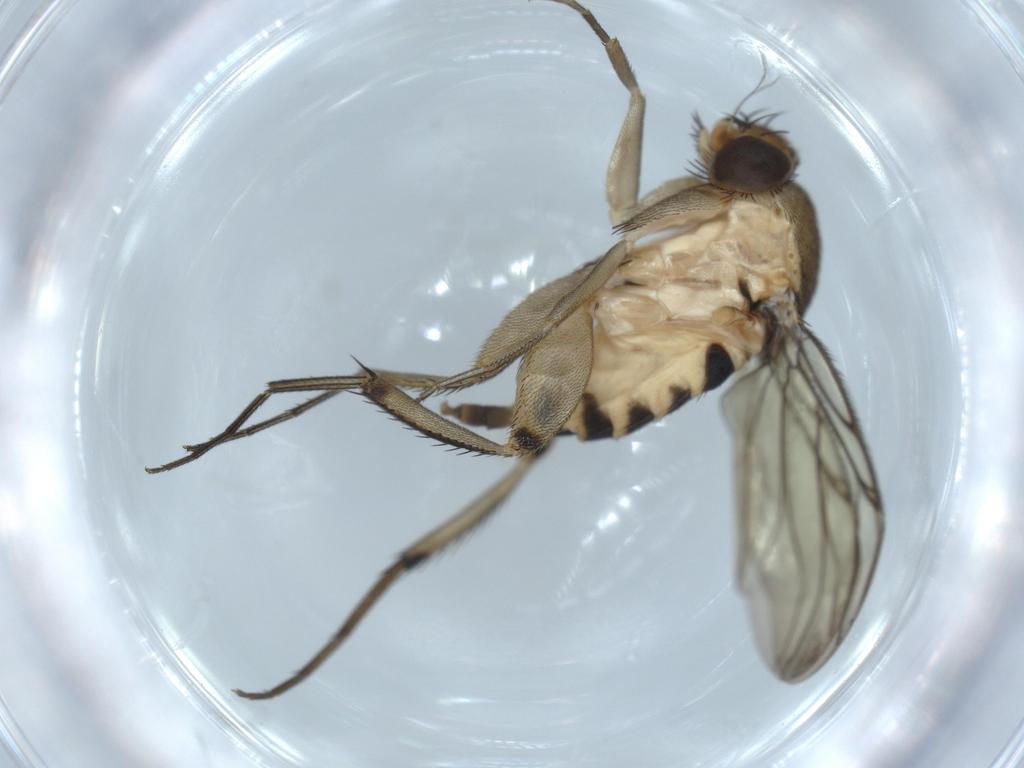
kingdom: Animalia
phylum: Arthropoda
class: Insecta
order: Diptera
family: Phoridae
